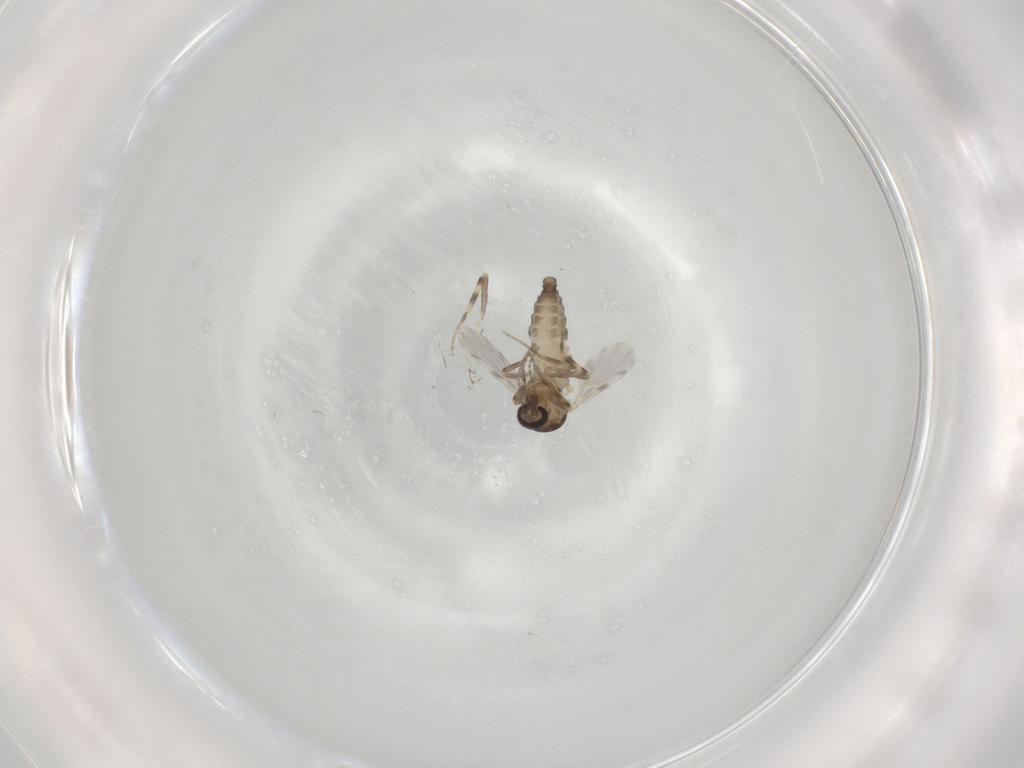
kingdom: Animalia
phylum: Arthropoda
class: Insecta
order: Diptera
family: Ceratopogonidae
